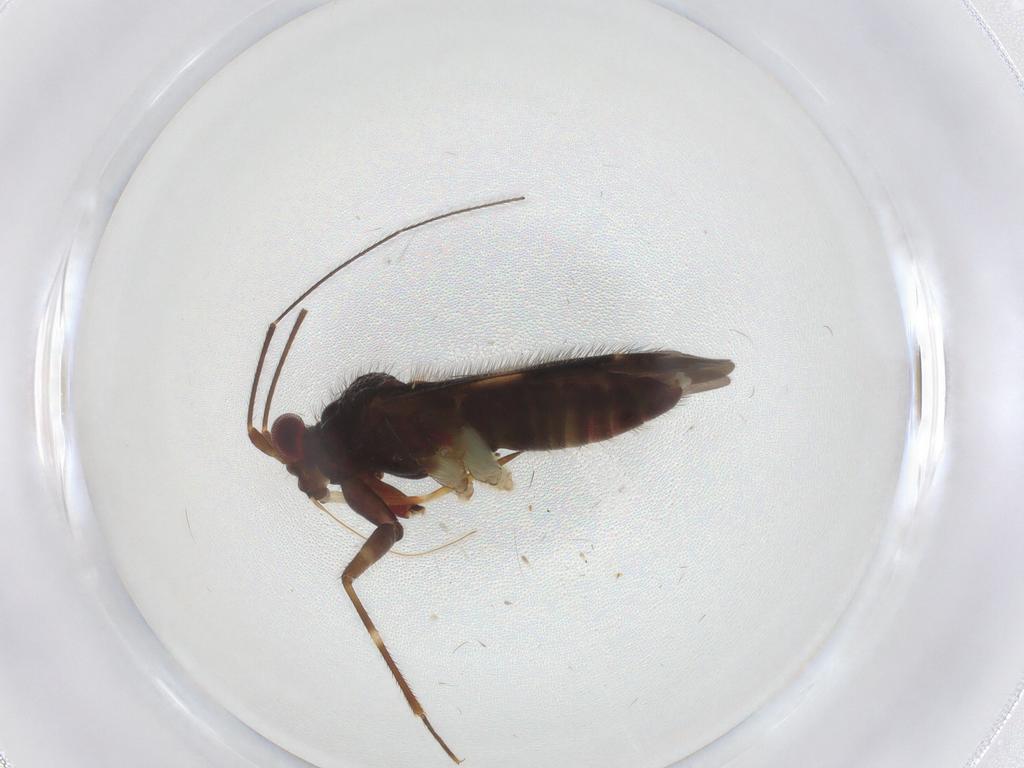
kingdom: Animalia
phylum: Arthropoda
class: Insecta
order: Hemiptera
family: Miridae
